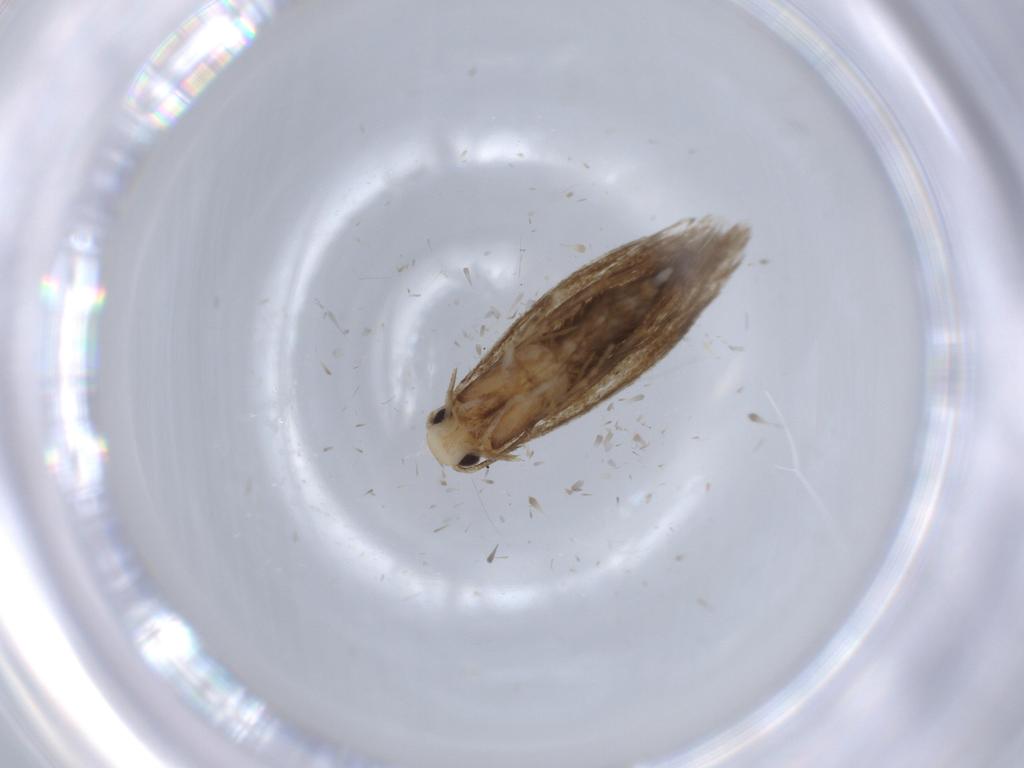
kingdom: Animalia
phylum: Arthropoda
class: Insecta
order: Lepidoptera
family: Tineidae
